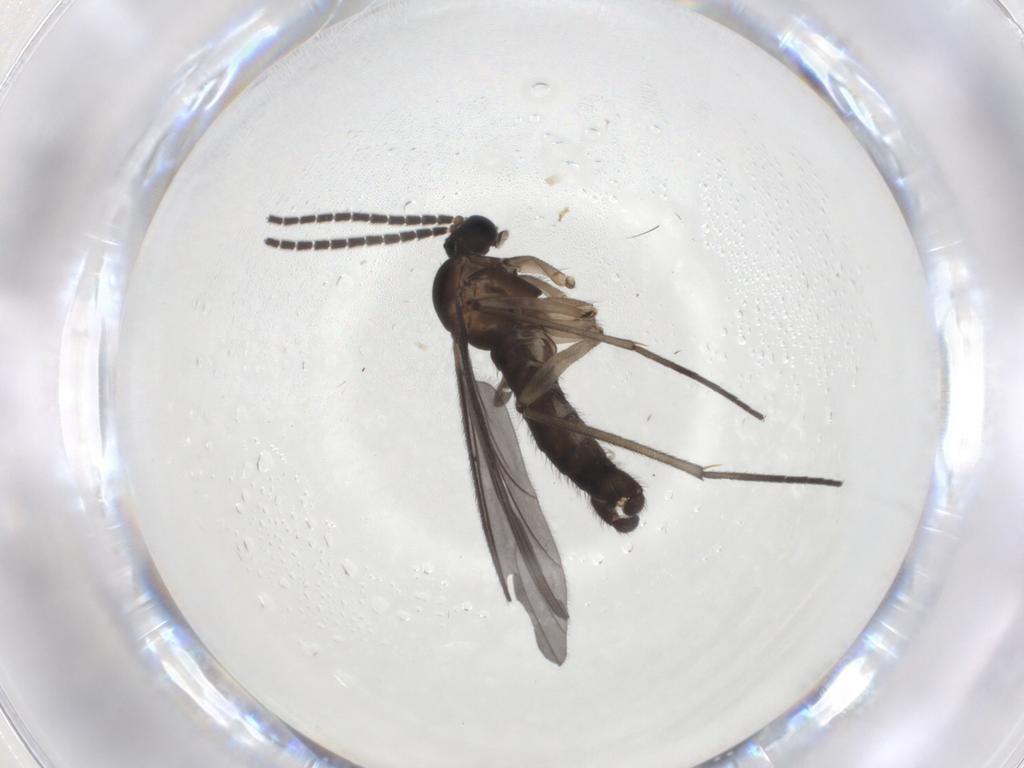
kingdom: Animalia
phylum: Arthropoda
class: Insecta
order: Diptera
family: Sciaridae
